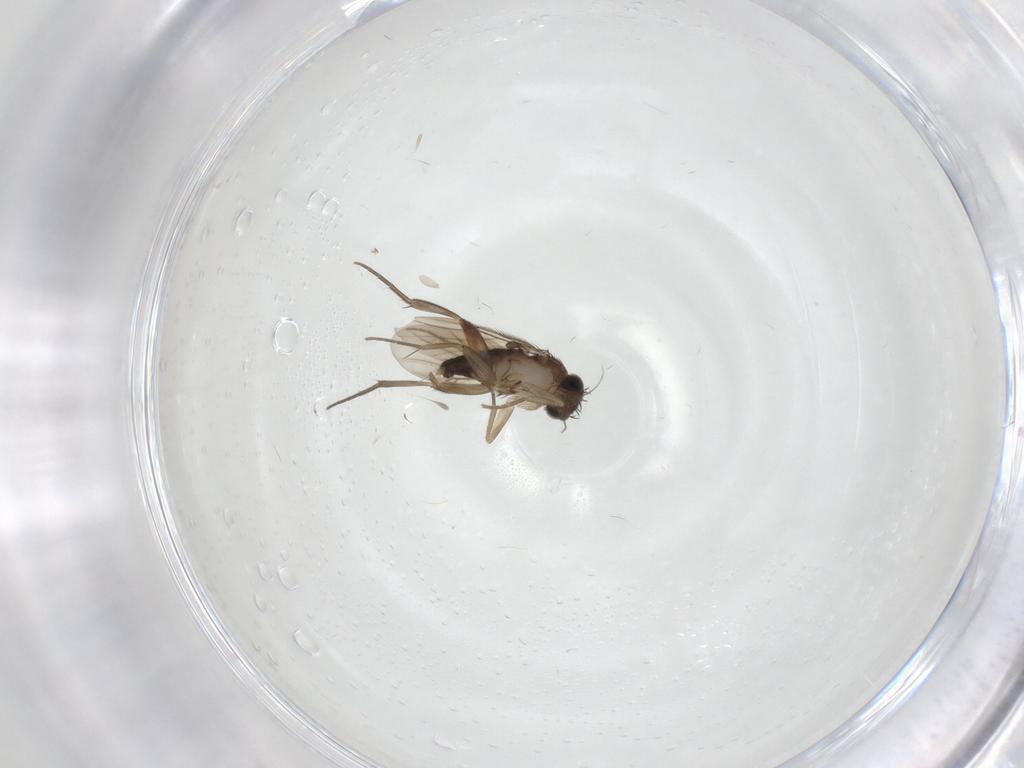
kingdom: Animalia
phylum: Arthropoda
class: Insecta
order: Diptera
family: Phoridae
